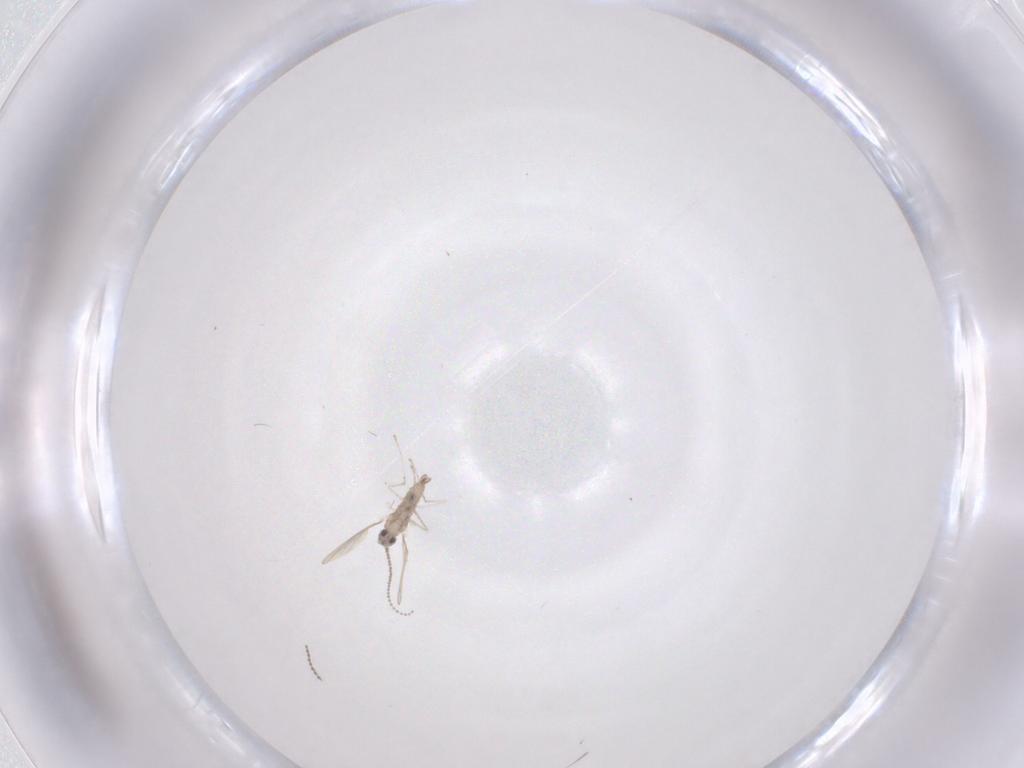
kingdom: Animalia
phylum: Arthropoda
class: Insecta
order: Diptera
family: Cecidomyiidae
